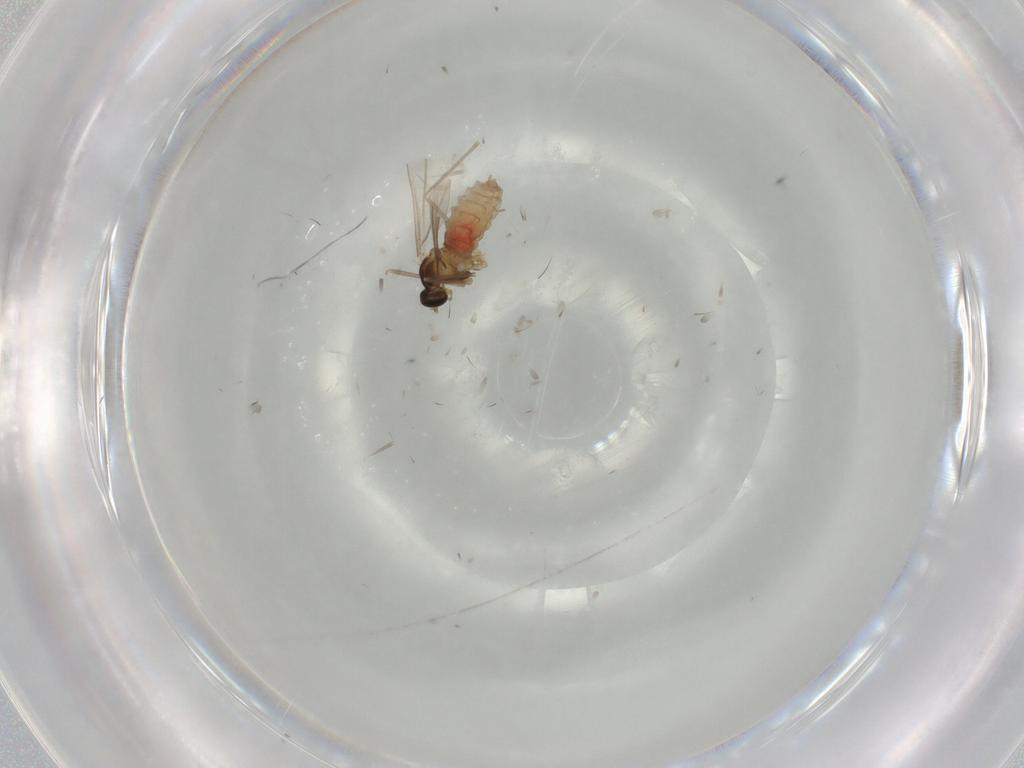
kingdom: Animalia
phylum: Arthropoda
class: Insecta
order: Diptera
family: Cecidomyiidae
